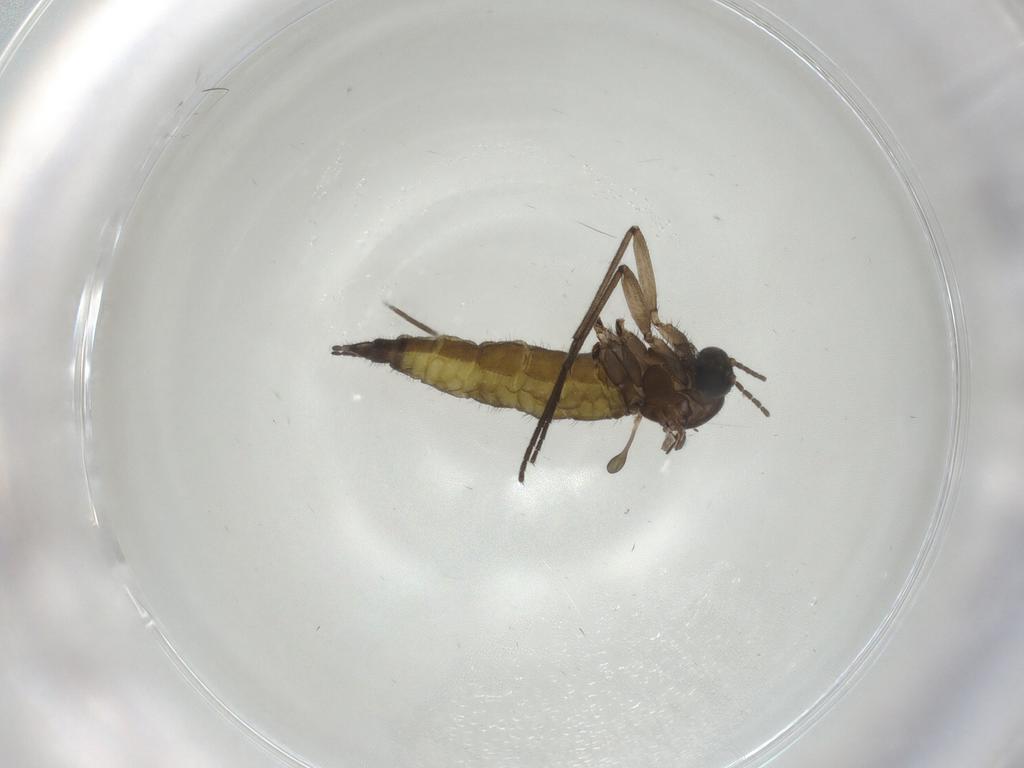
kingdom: Animalia
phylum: Arthropoda
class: Insecta
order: Diptera
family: Sciaridae
